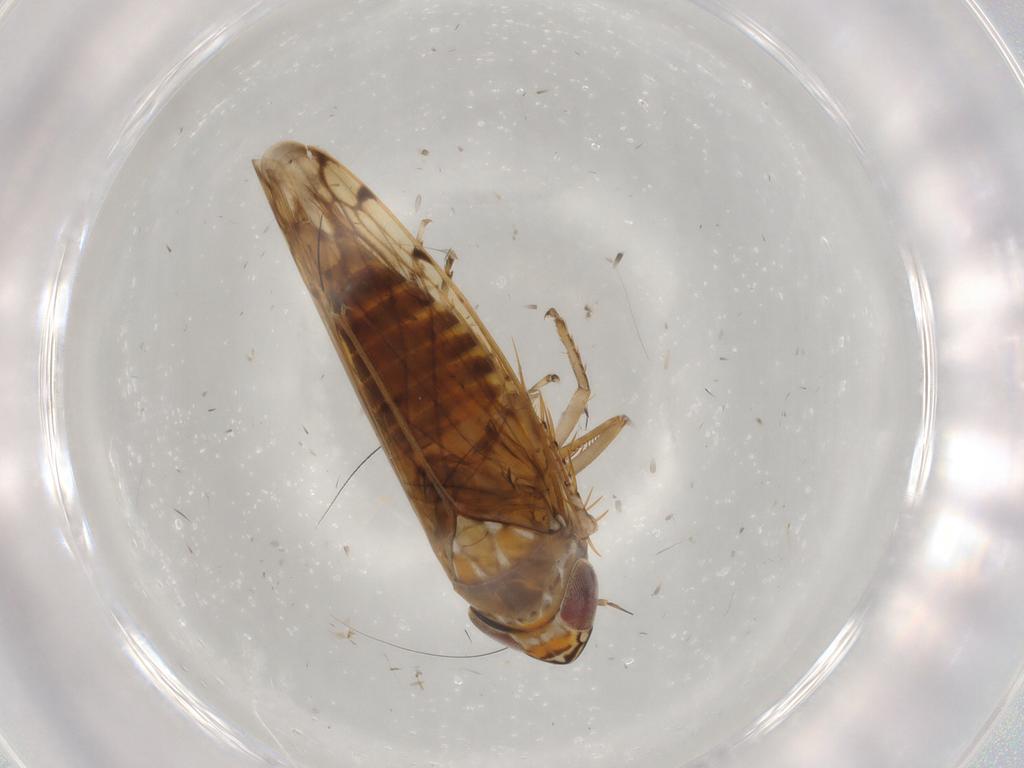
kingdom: Animalia
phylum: Arthropoda
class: Insecta
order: Hemiptera
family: Cicadellidae
